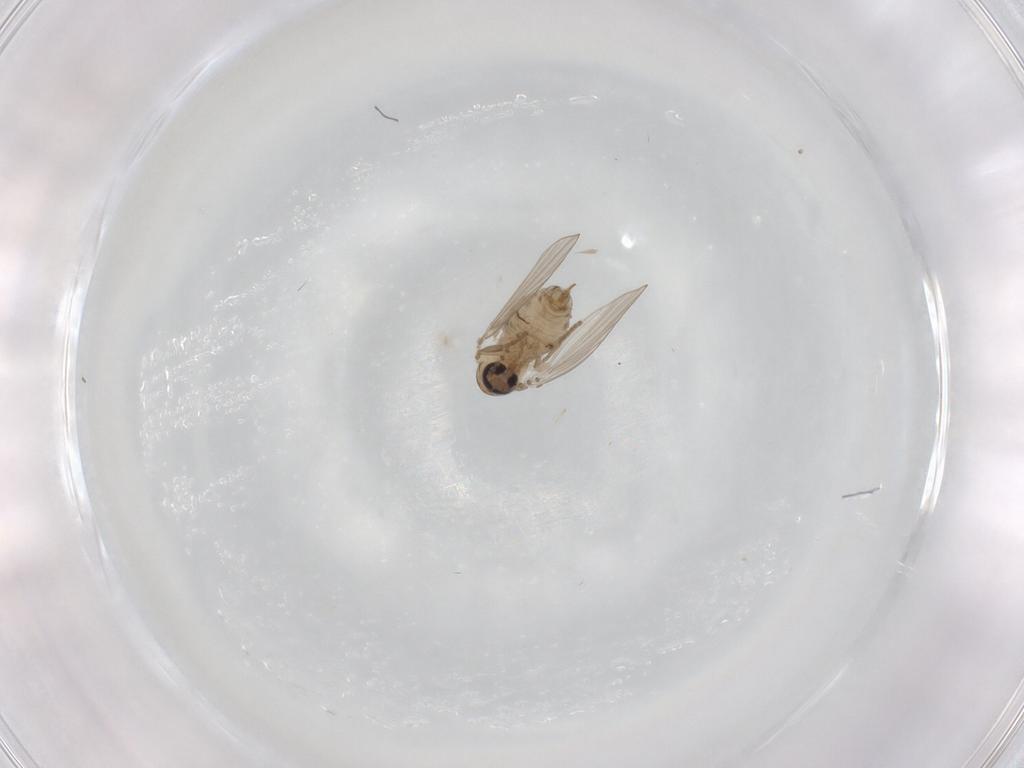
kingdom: Animalia
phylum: Arthropoda
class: Insecta
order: Diptera
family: Psychodidae
